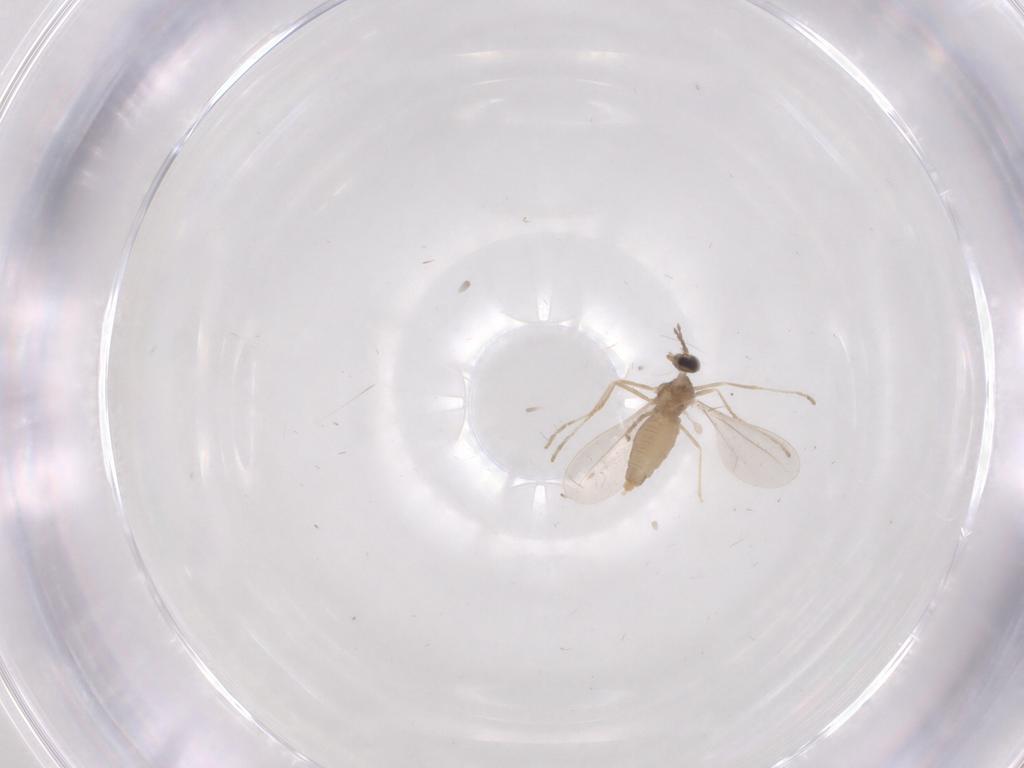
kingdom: Animalia
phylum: Arthropoda
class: Insecta
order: Diptera
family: Cecidomyiidae
